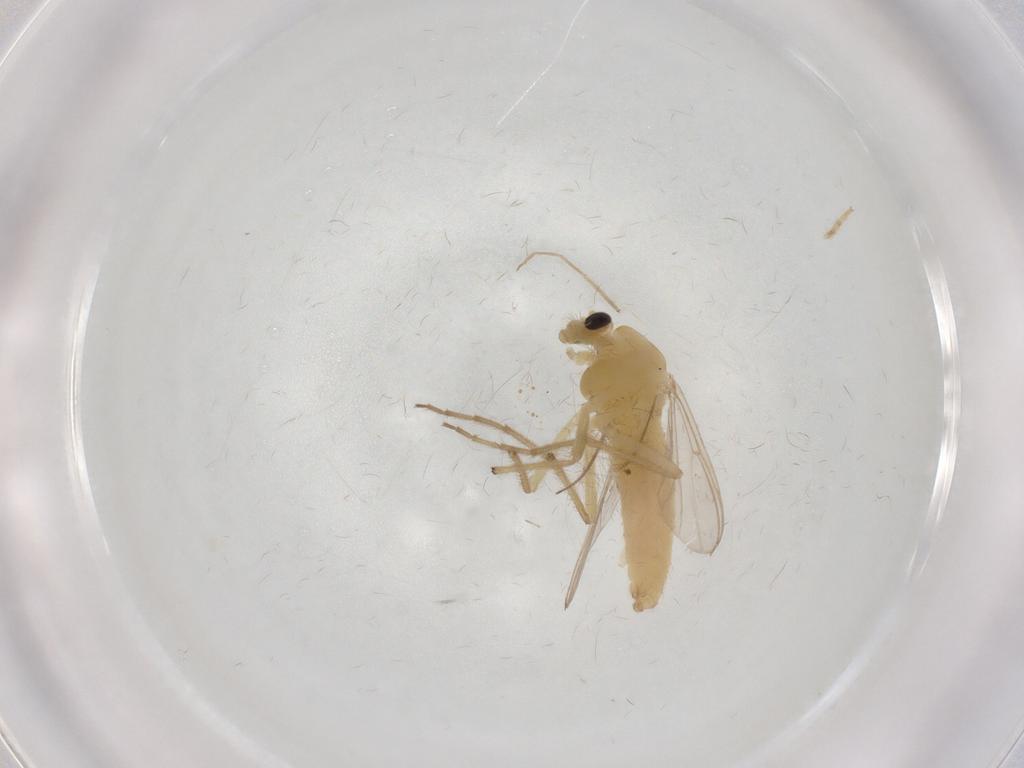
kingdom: Animalia
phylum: Arthropoda
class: Insecta
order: Diptera
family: Chironomidae
